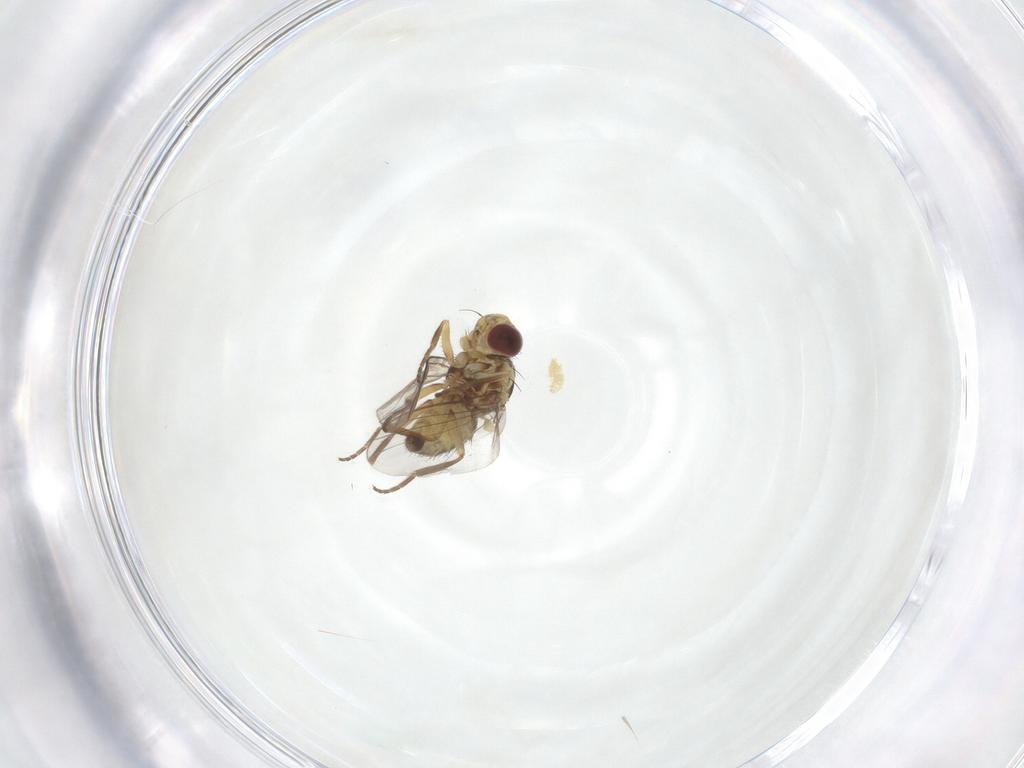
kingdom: Animalia
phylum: Arthropoda
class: Insecta
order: Diptera
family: Agromyzidae
